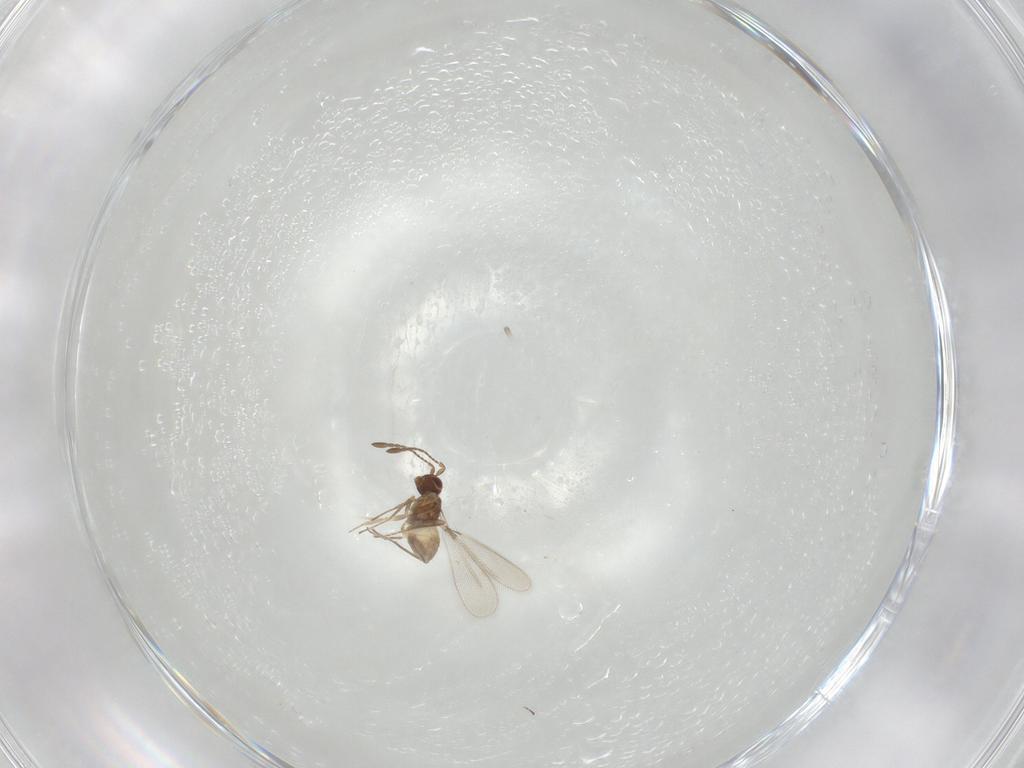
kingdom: Animalia
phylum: Arthropoda
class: Insecta
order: Hymenoptera
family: Mymaridae
